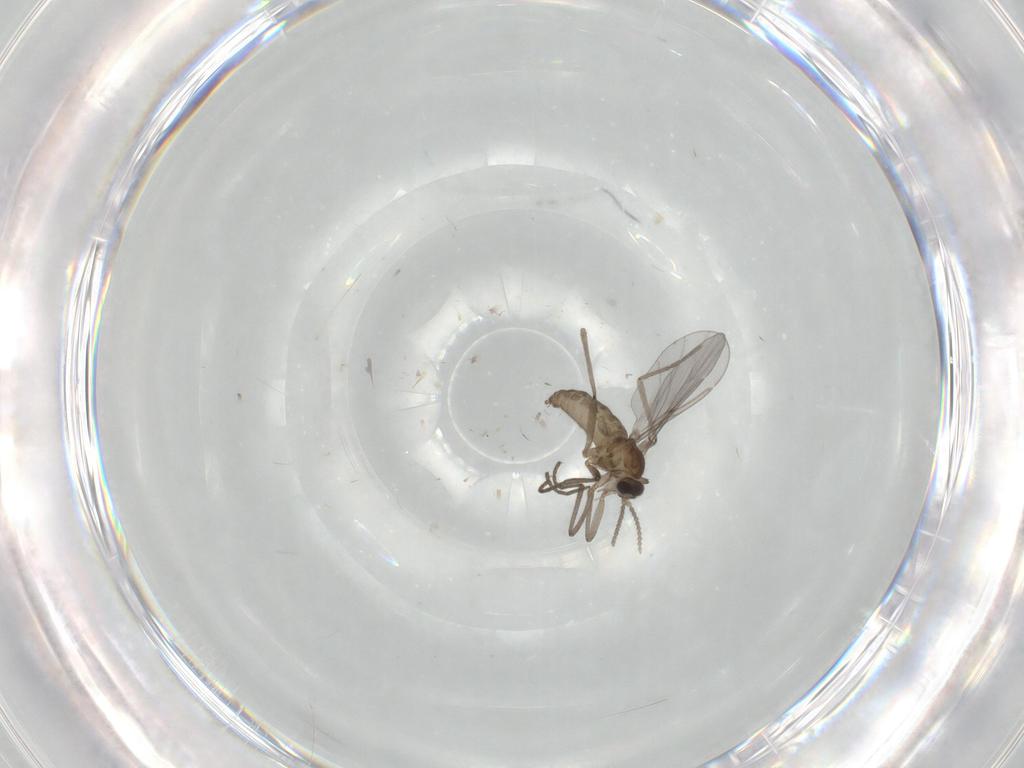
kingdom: Animalia
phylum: Arthropoda
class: Insecta
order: Diptera
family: Cecidomyiidae
